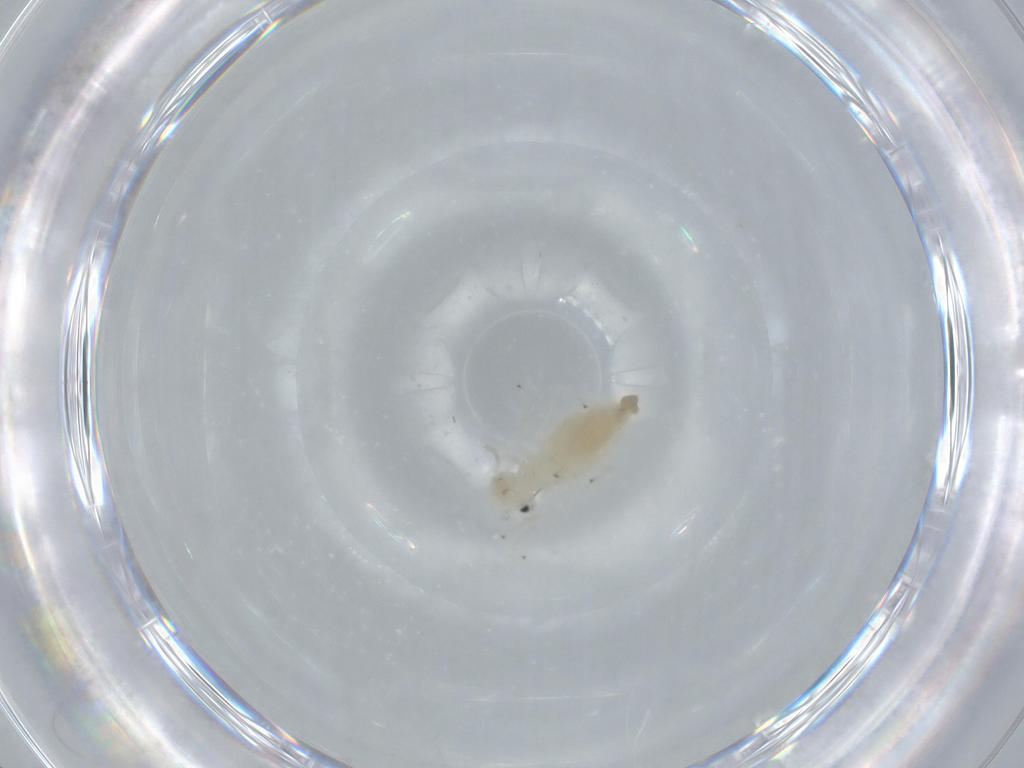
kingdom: Animalia
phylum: Arthropoda
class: Insecta
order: Psocodea
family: Caeciliusidae
